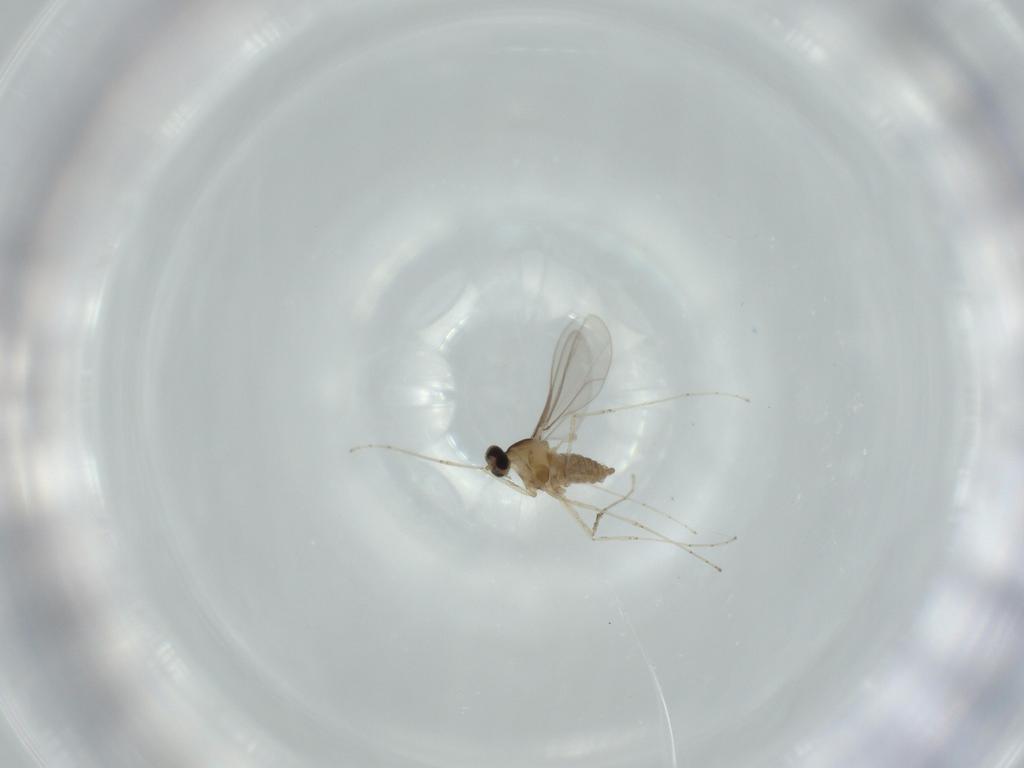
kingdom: Animalia
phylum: Arthropoda
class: Insecta
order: Diptera
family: Cecidomyiidae
